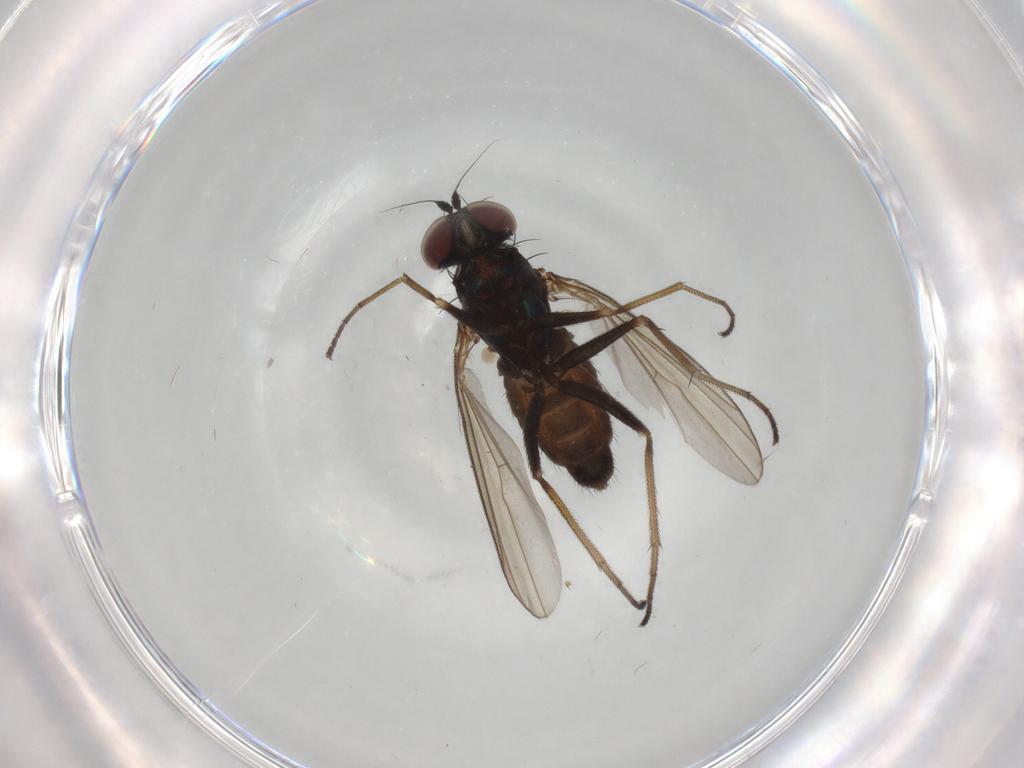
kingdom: Animalia
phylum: Arthropoda
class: Insecta
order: Diptera
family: Dolichopodidae
